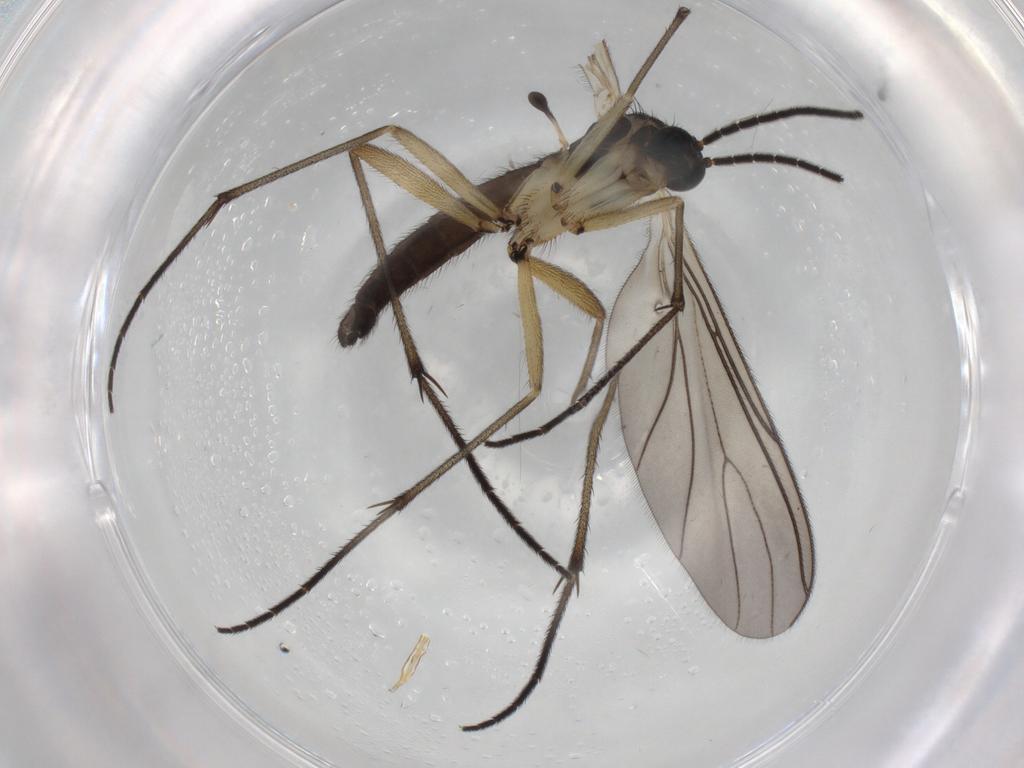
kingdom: Animalia
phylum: Arthropoda
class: Insecta
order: Diptera
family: Sciaridae
